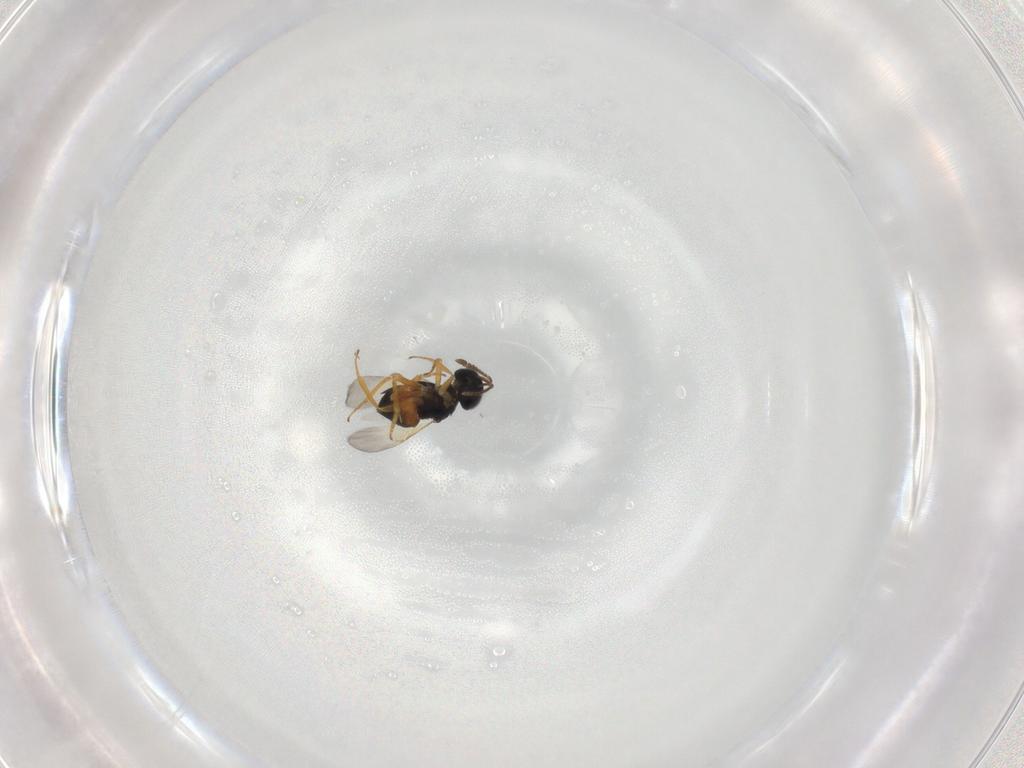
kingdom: Animalia
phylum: Arthropoda
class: Insecta
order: Hymenoptera
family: Encyrtidae
